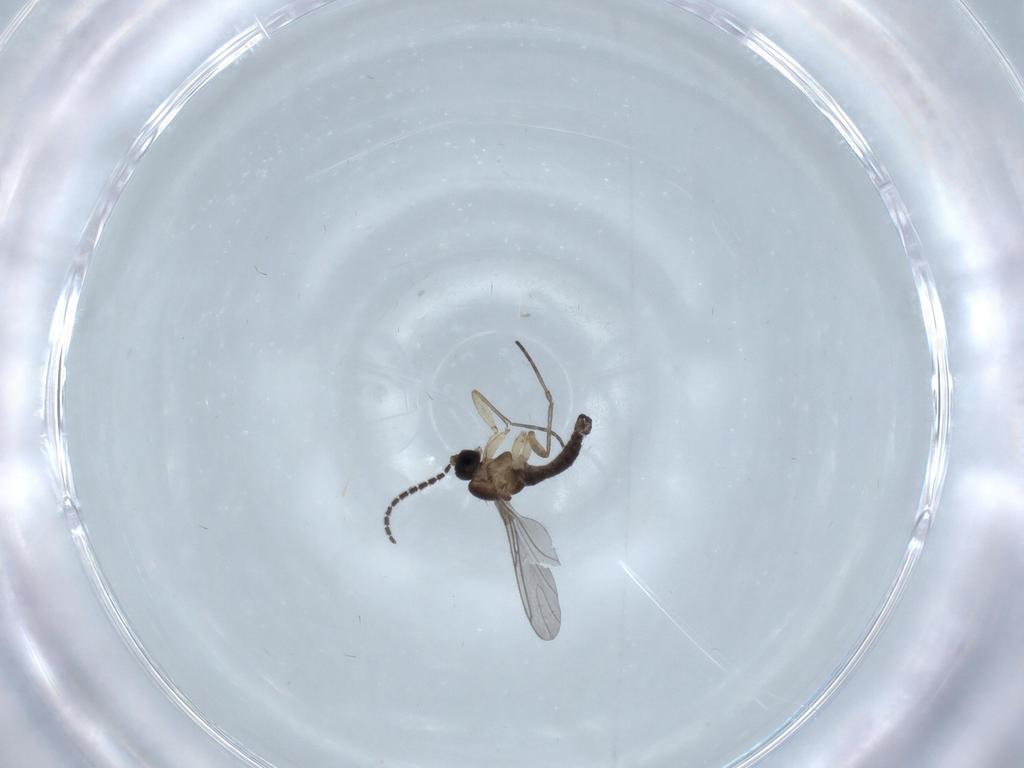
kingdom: Animalia
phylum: Arthropoda
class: Insecta
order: Diptera
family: Sciaridae
